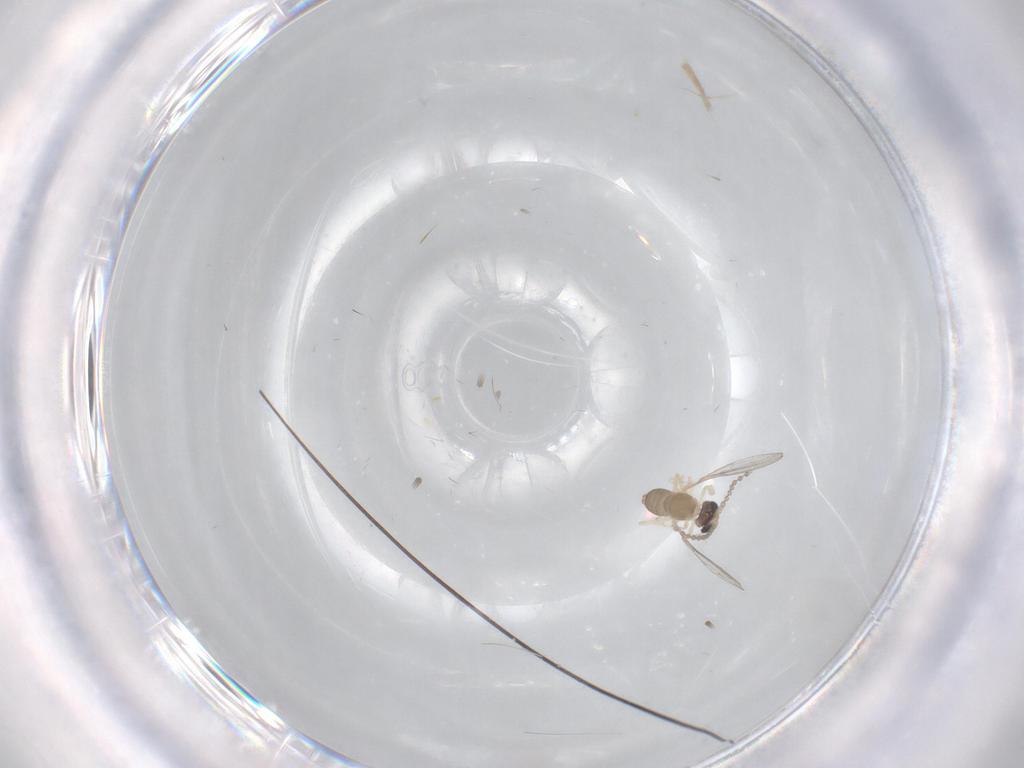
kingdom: Animalia
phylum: Arthropoda
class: Insecta
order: Diptera
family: Cecidomyiidae
